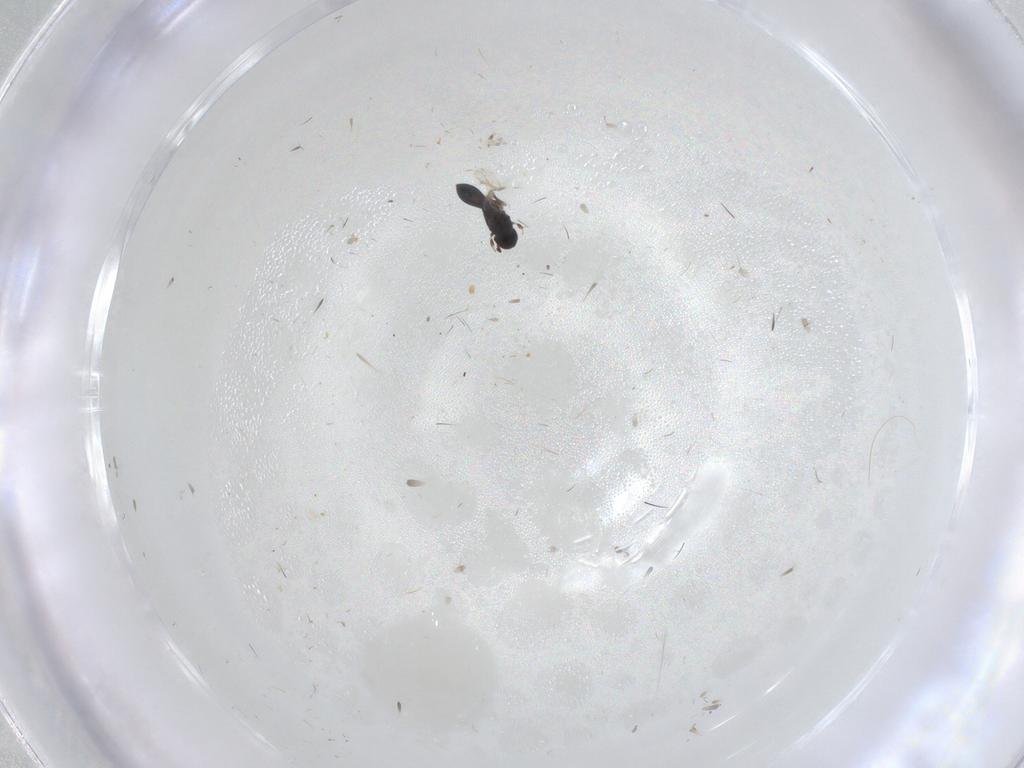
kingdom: Animalia
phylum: Arthropoda
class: Insecta
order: Hymenoptera
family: Scelionidae
